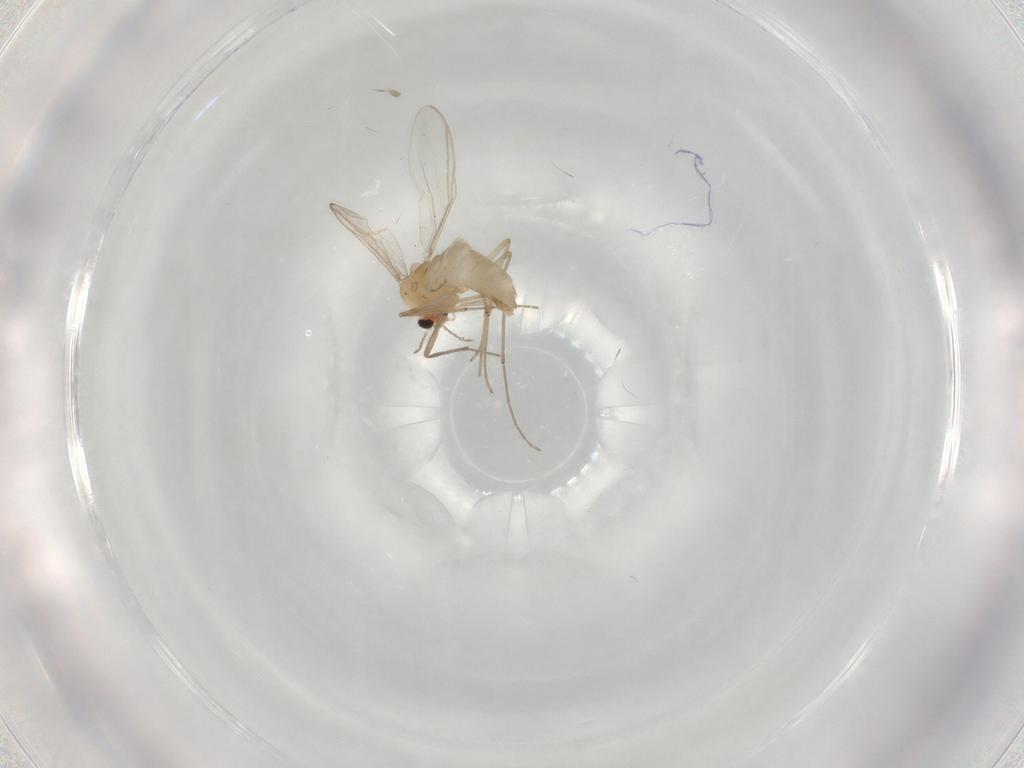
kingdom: Animalia
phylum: Arthropoda
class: Insecta
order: Diptera
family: Chironomidae
